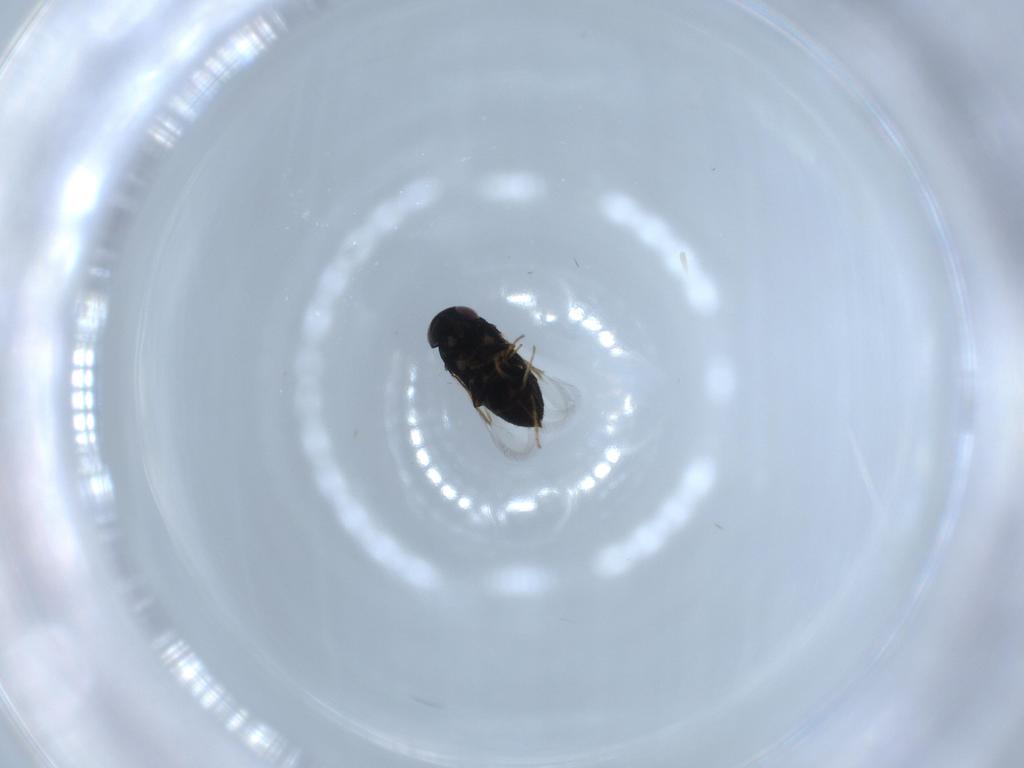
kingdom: Animalia
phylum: Arthropoda
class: Insecta
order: Hymenoptera
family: Signiphoridae
